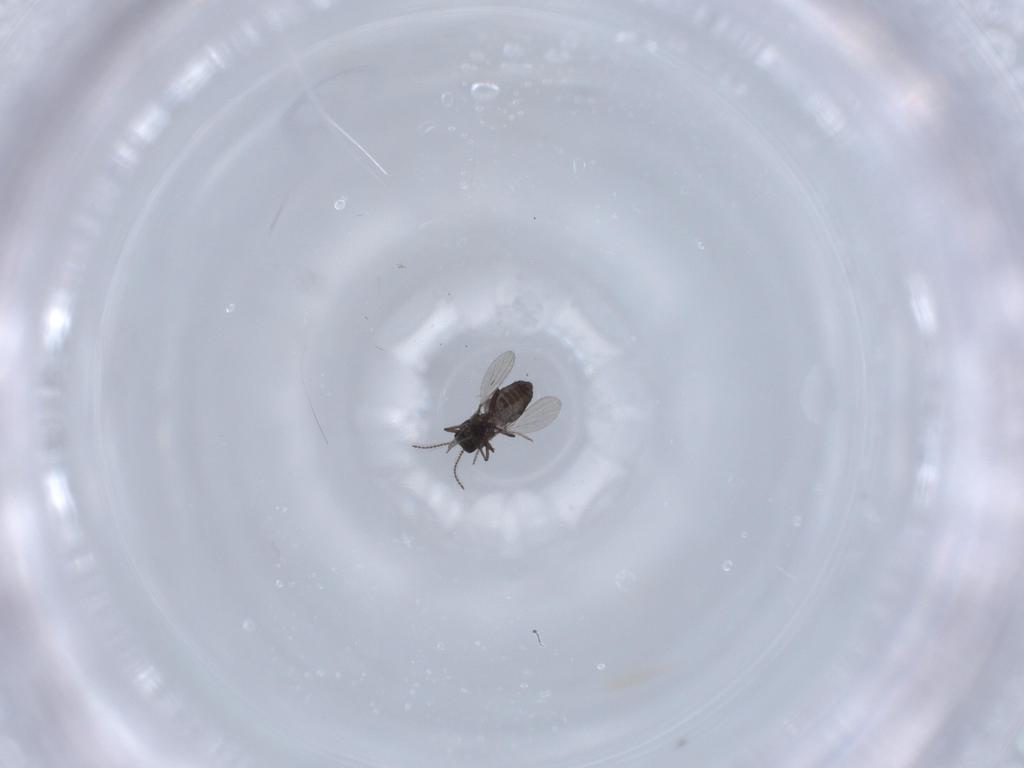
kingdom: Animalia
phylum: Arthropoda
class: Insecta
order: Diptera
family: Ceratopogonidae
